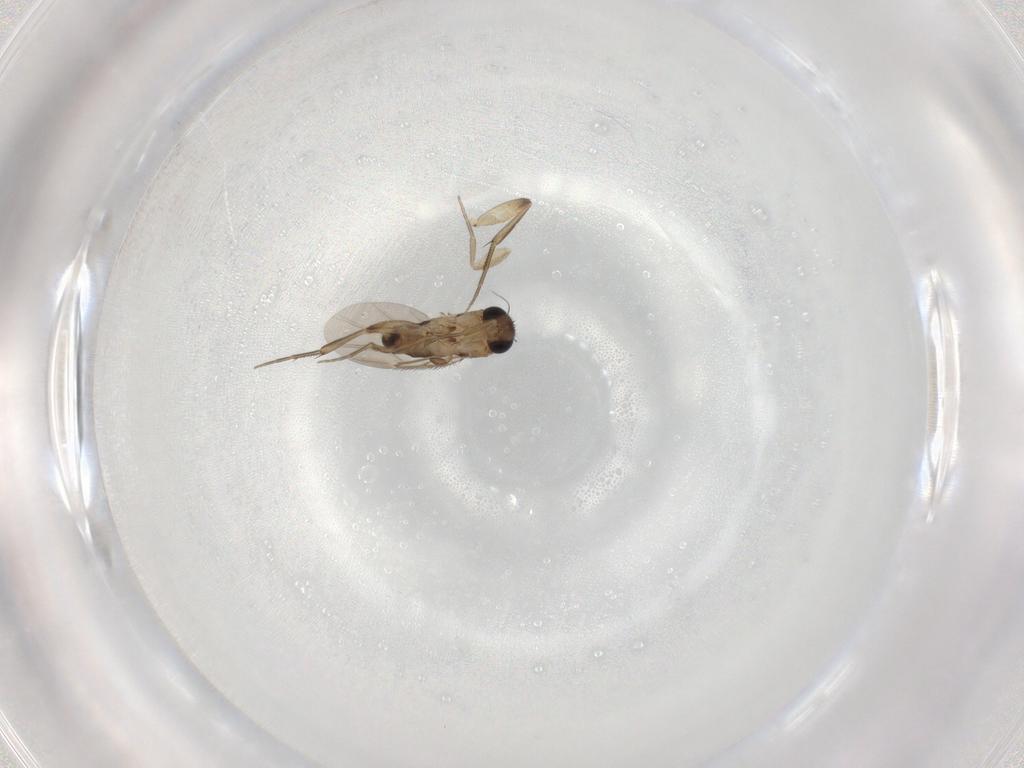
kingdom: Animalia
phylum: Arthropoda
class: Insecta
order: Diptera
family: Phoridae
